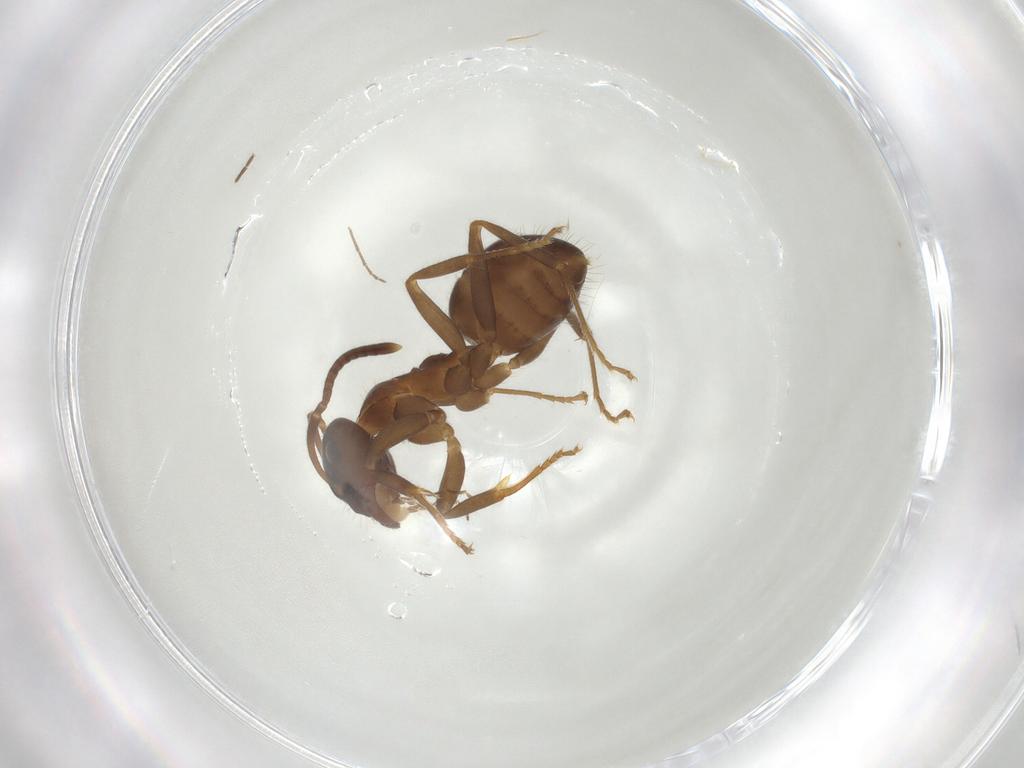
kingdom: Animalia
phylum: Arthropoda
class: Insecta
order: Hymenoptera
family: Formicidae
